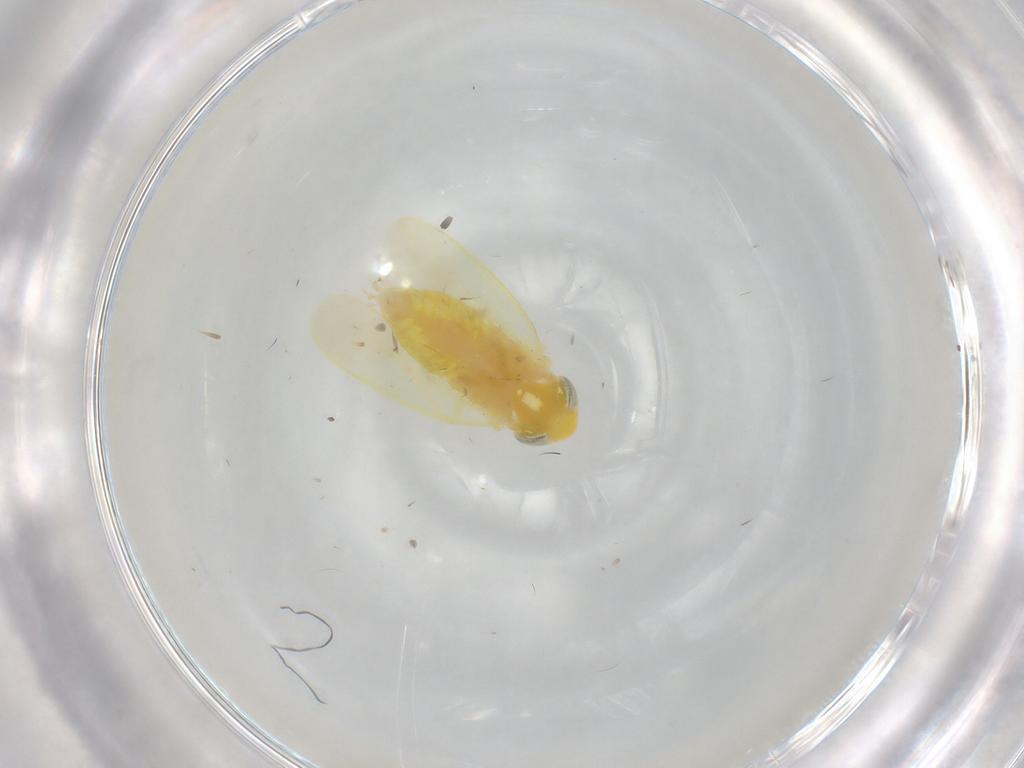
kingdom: Animalia
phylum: Arthropoda
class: Insecta
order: Hemiptera
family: Cicadellidae
